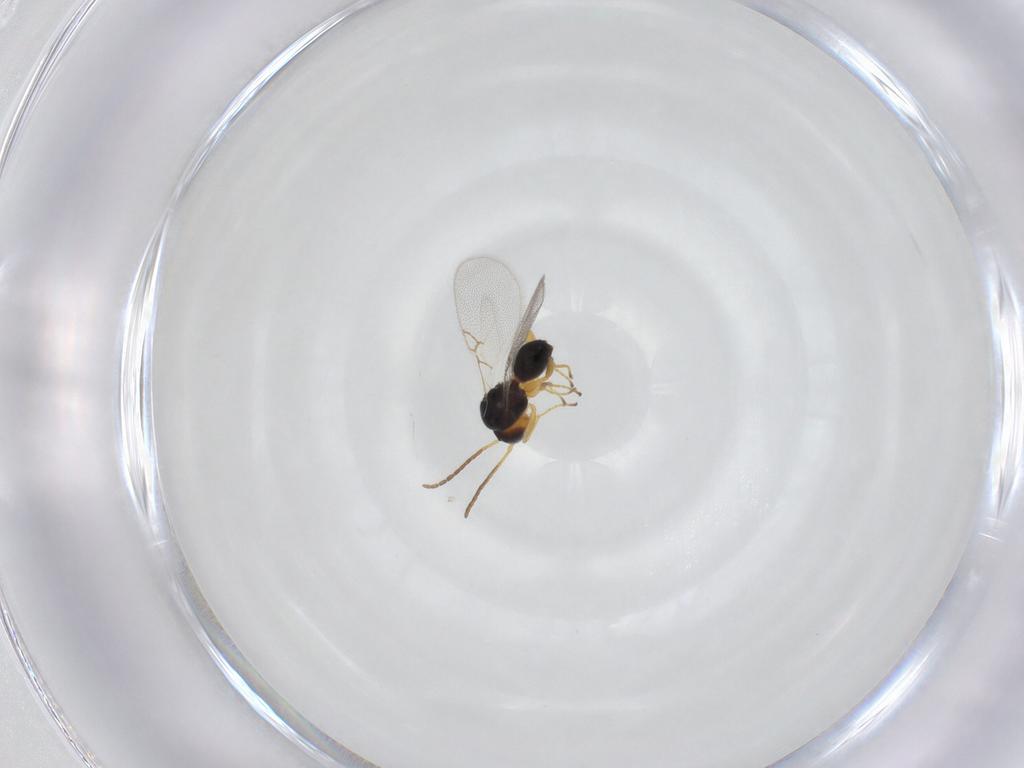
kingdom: Animalia
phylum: Arthropoda
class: Insecta
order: Hymenoptera
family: Figitidae
